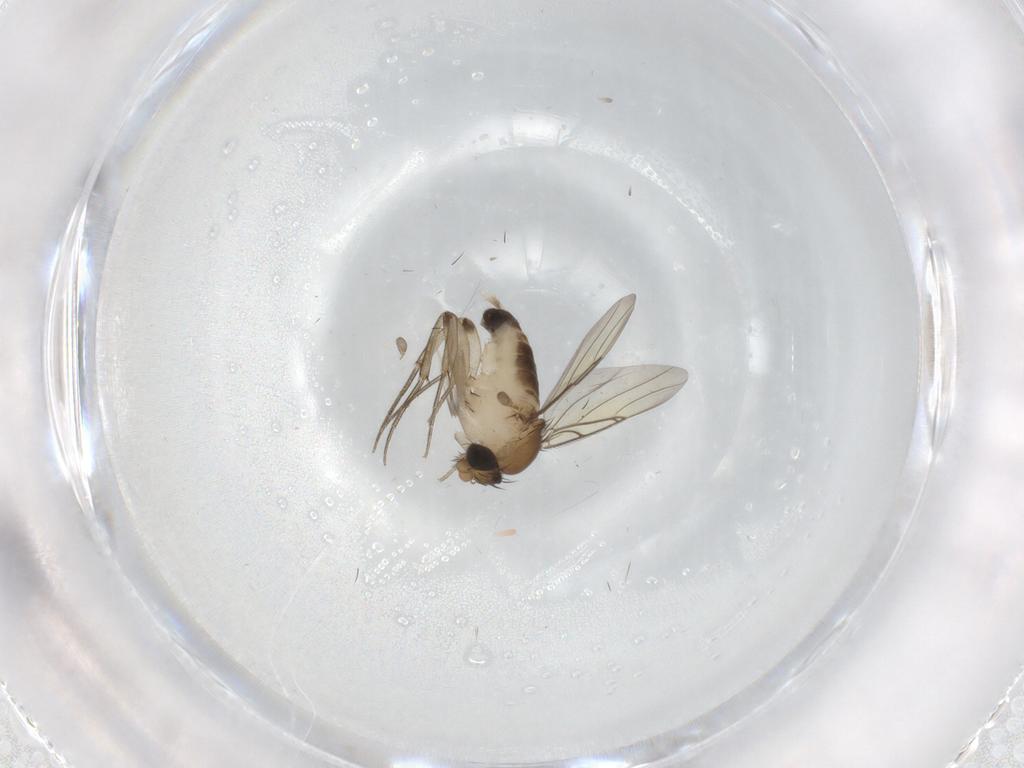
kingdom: Animalia
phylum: Arthropoda
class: Insecta
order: Diptera
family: Phoridae
